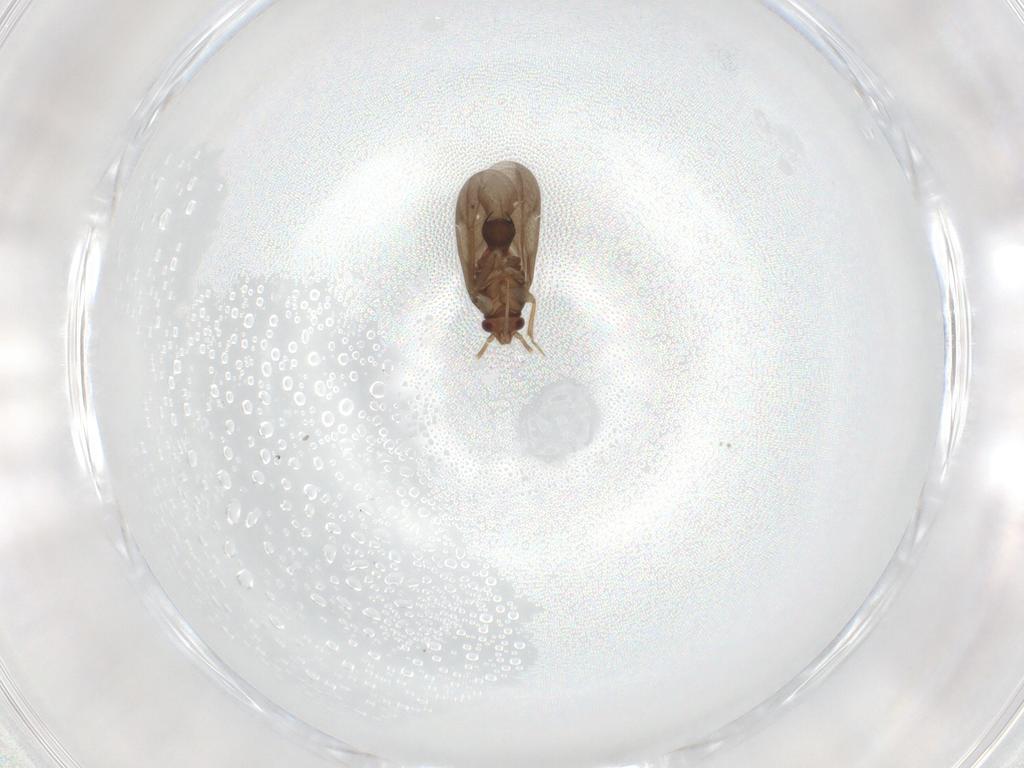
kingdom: Animalia
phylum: Arthropoda
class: Insecta
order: Hemiptera
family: Ceratocombidae
